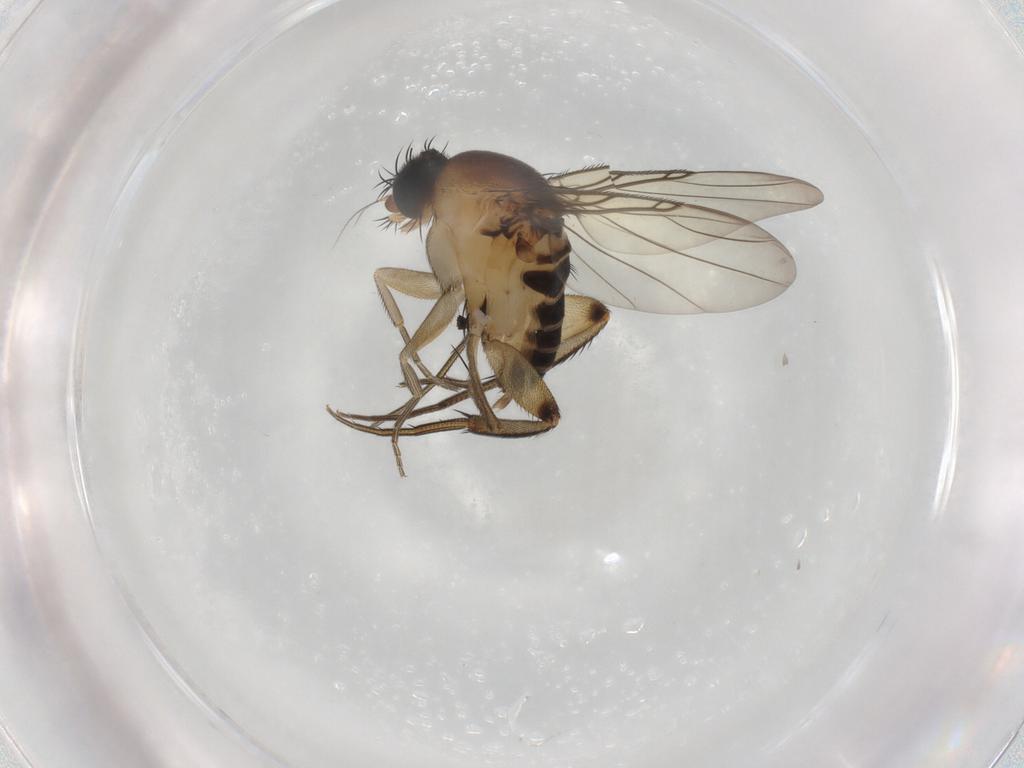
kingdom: Animalia
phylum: Arthropoda
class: Insecta
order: Diptera
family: Phoridae
